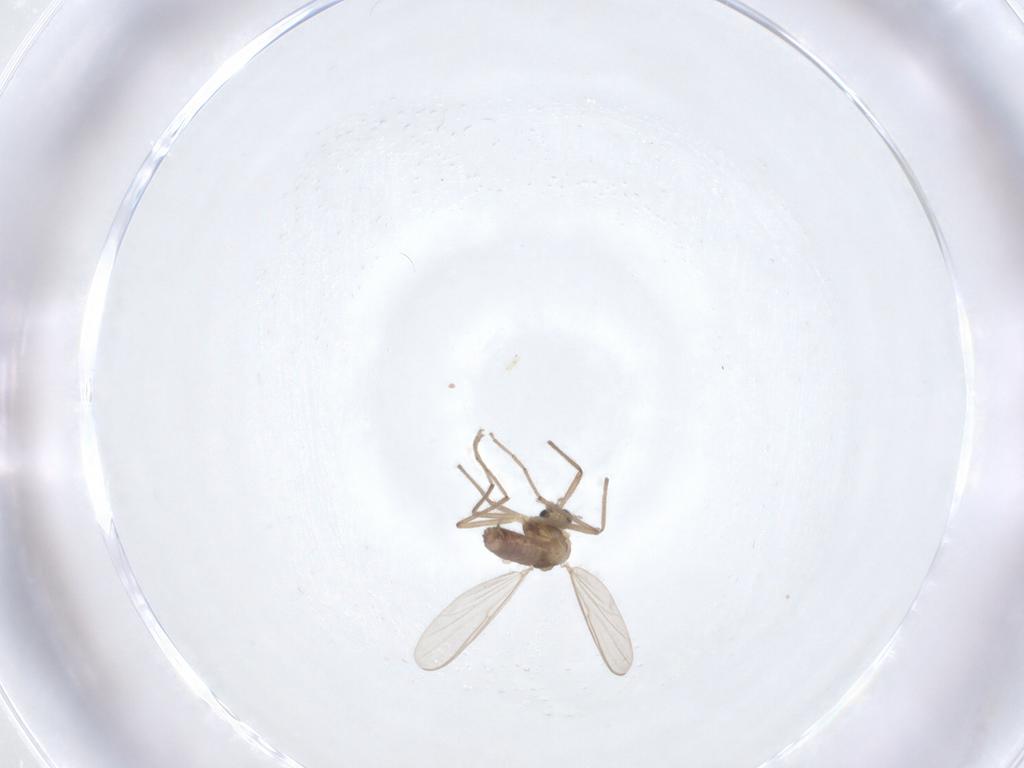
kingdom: Animalia
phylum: Arthropoda
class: Insecta
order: Diptera
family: Chironomidae
